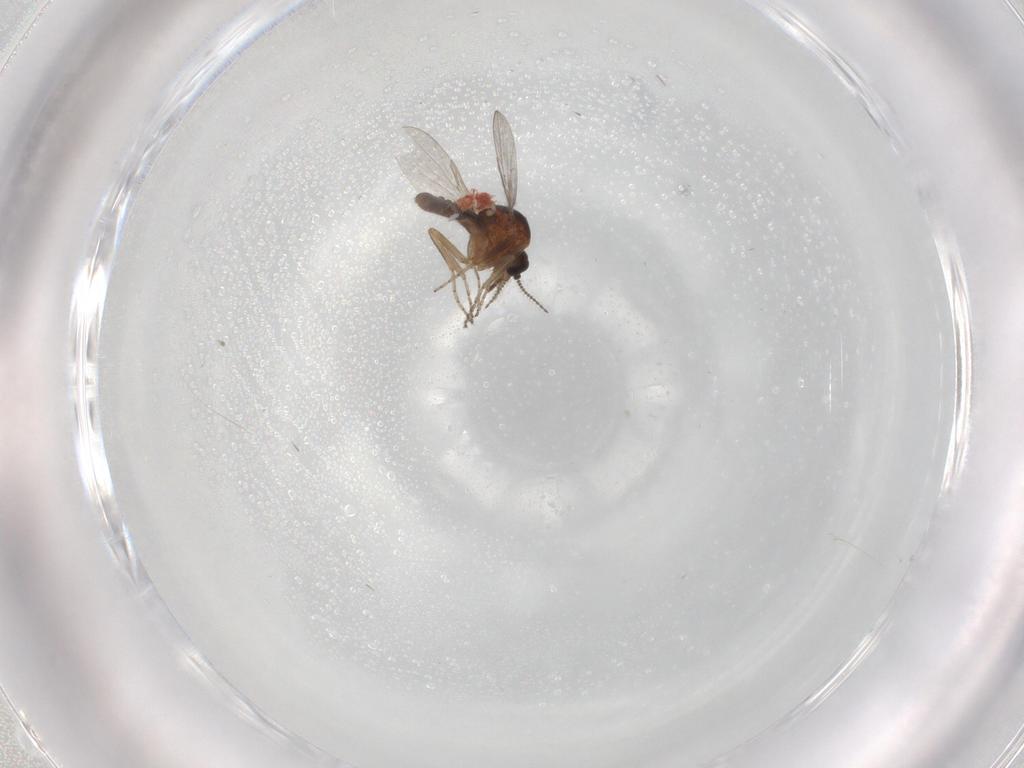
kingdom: Animalia
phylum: Arthropoda
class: Insecta
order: Diptera
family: Ceratopogonidae
